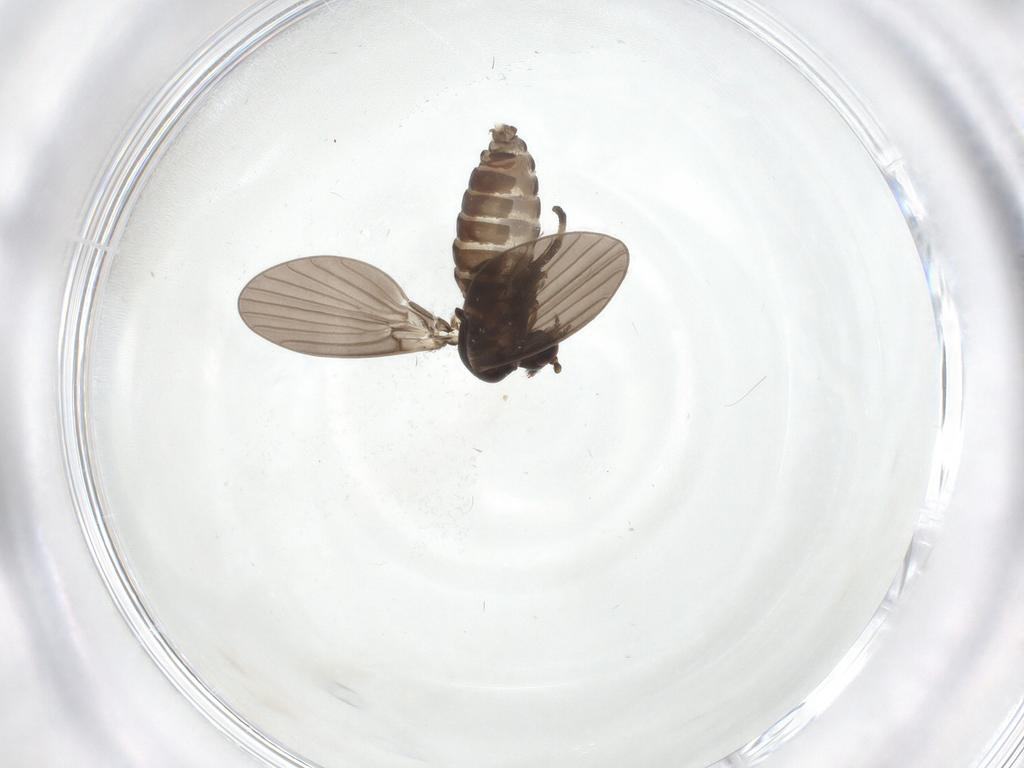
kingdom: Animalia
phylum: Arthropoda
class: Insecta
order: Diptera
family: Psychodidae
